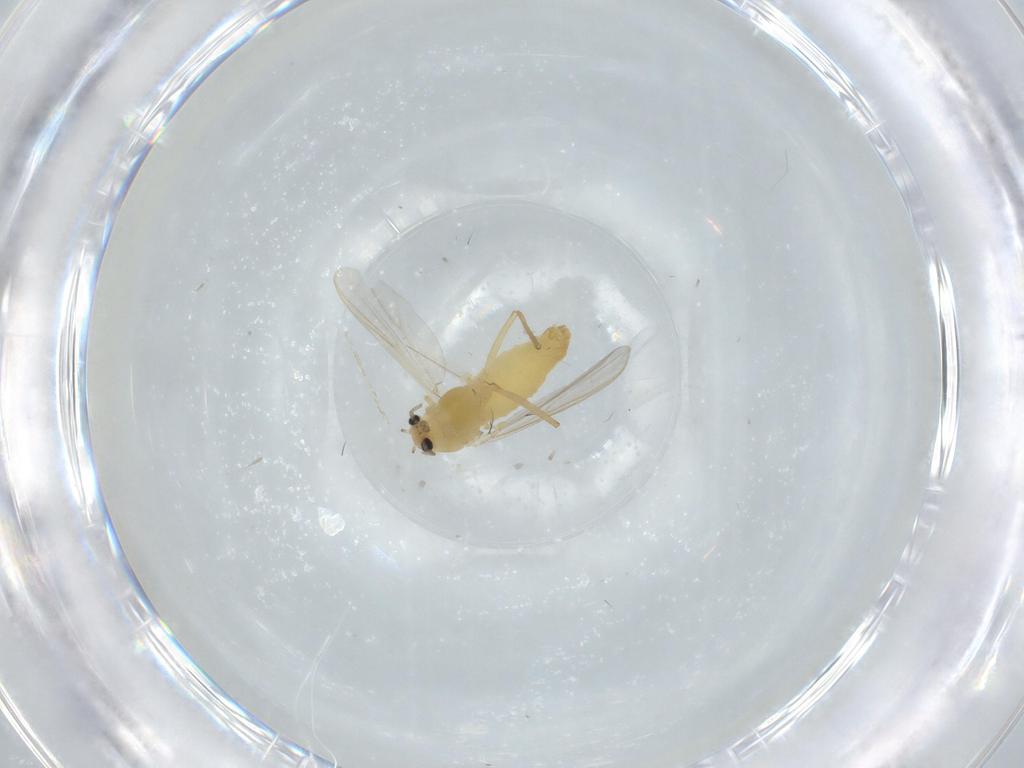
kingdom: Animalia
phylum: Arthropoda
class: Insecta
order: Diptera
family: Chironomidae
